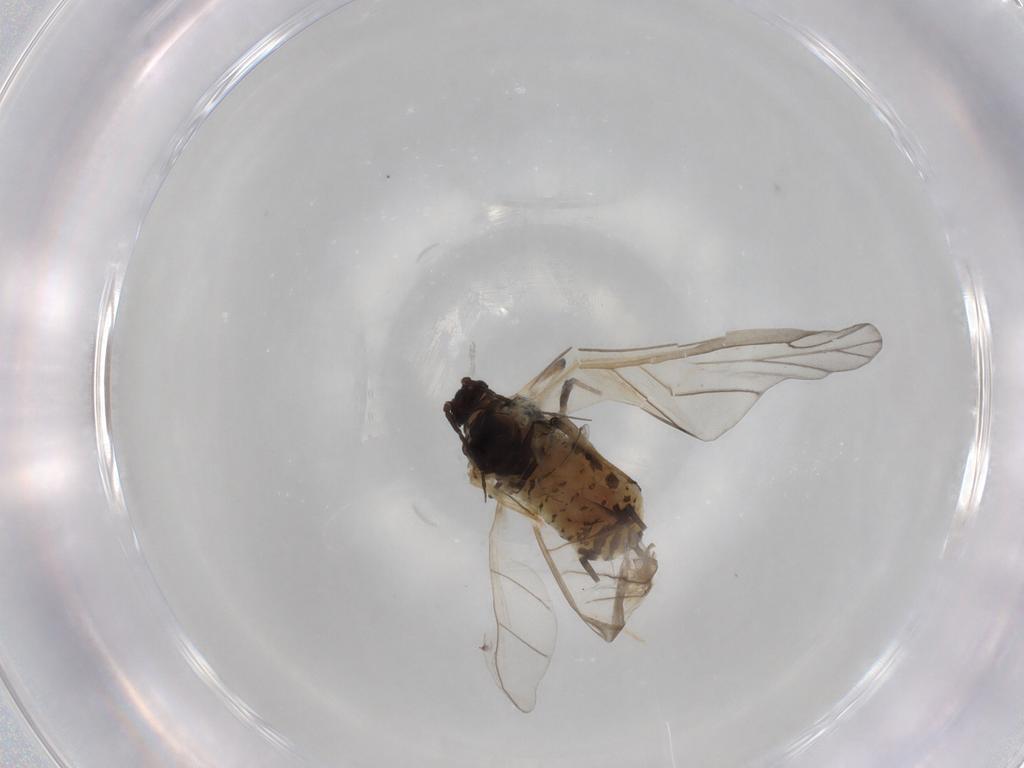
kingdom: Animalia
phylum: Arthropoda
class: Insecta
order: Hemiptera
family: Aphididae
